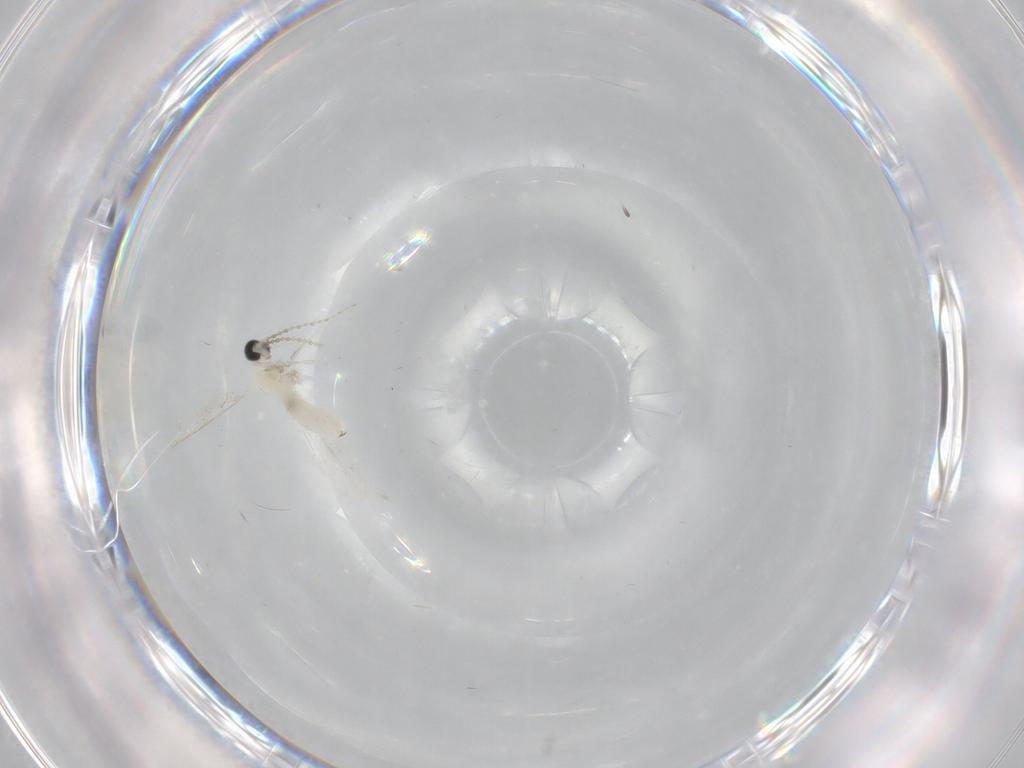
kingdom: Animalia
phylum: Arthropoda
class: Insecta
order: Diptera
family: Cecidomyiidae
